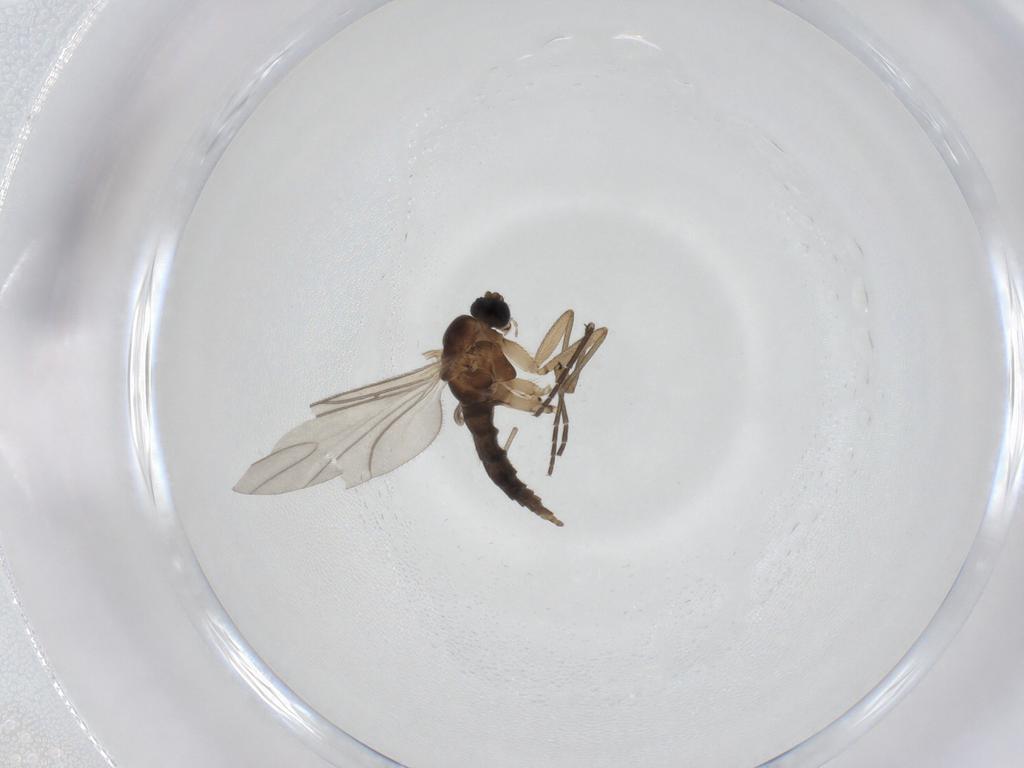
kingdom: Animalia
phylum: Arthropoda
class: Insecta
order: Diptera
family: Sciaridae
